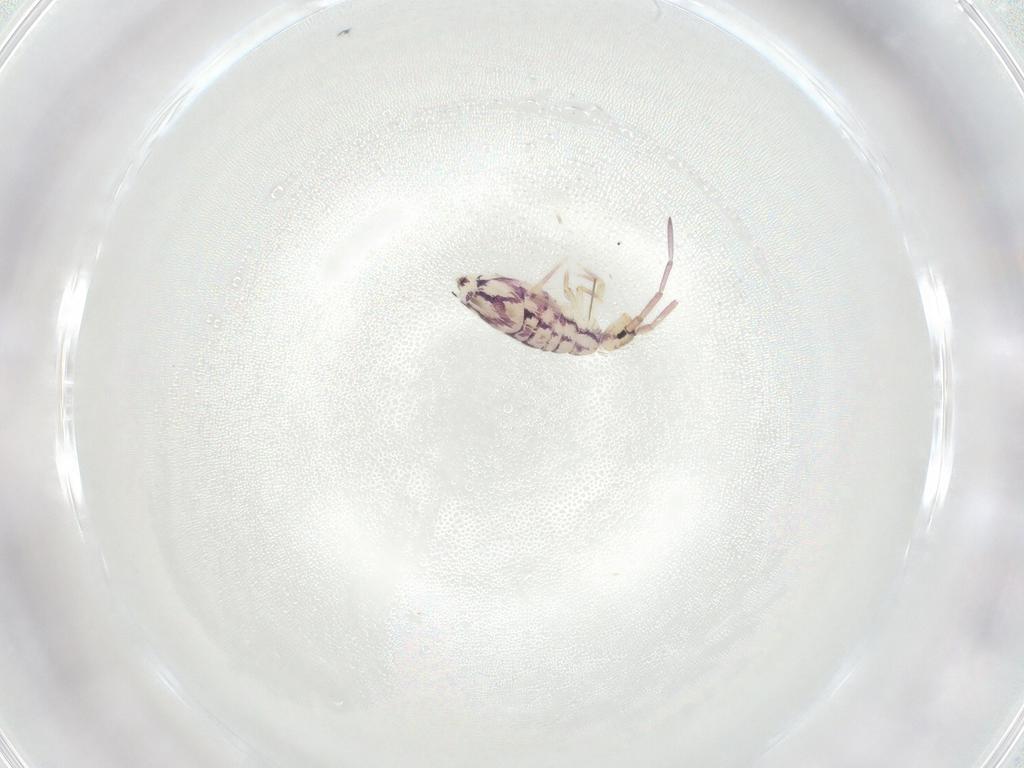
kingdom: Animalia
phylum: Arthropoda
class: Collembola
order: Entomobryomorpha
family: Entomobryidae
